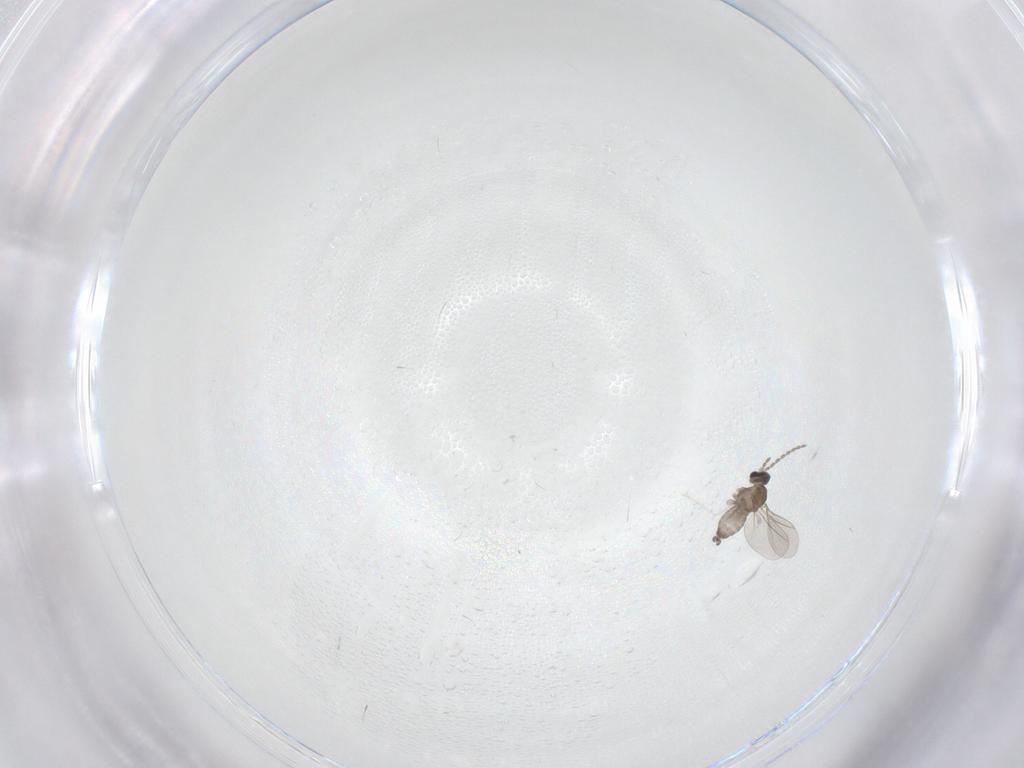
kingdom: Animalia
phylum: Arthropoda
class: Insecta
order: Diptera
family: Cecidomyiidae
